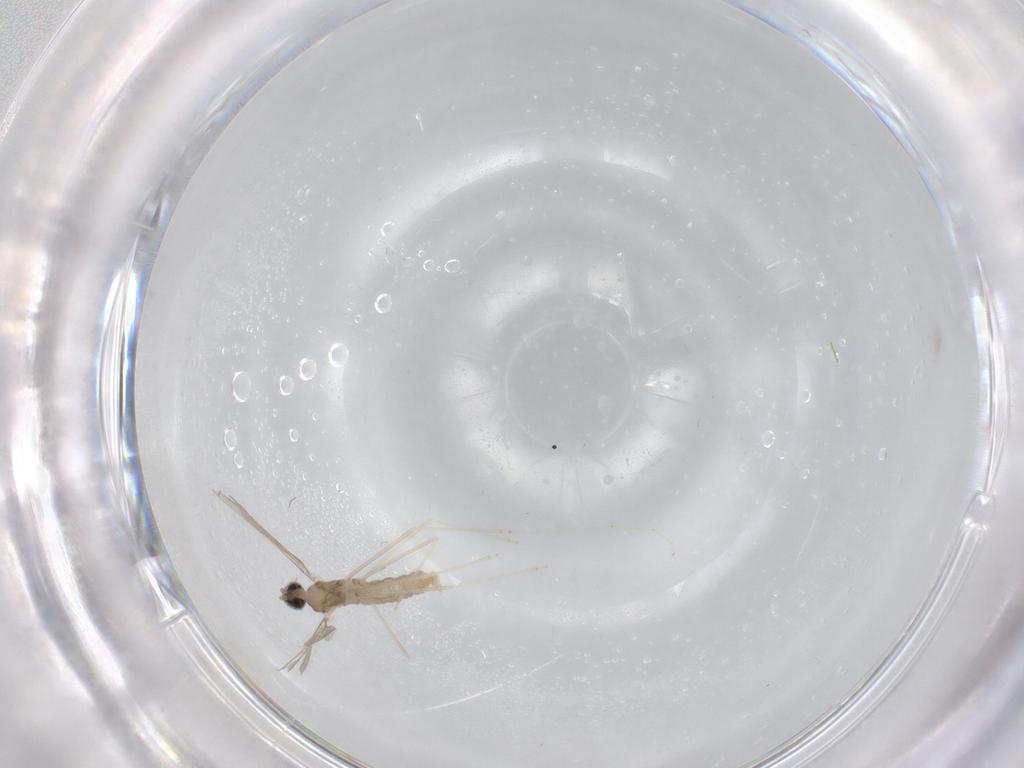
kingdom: Animalia
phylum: Arthropoda
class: Insecta
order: Diptera
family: Cecidomyiidae
